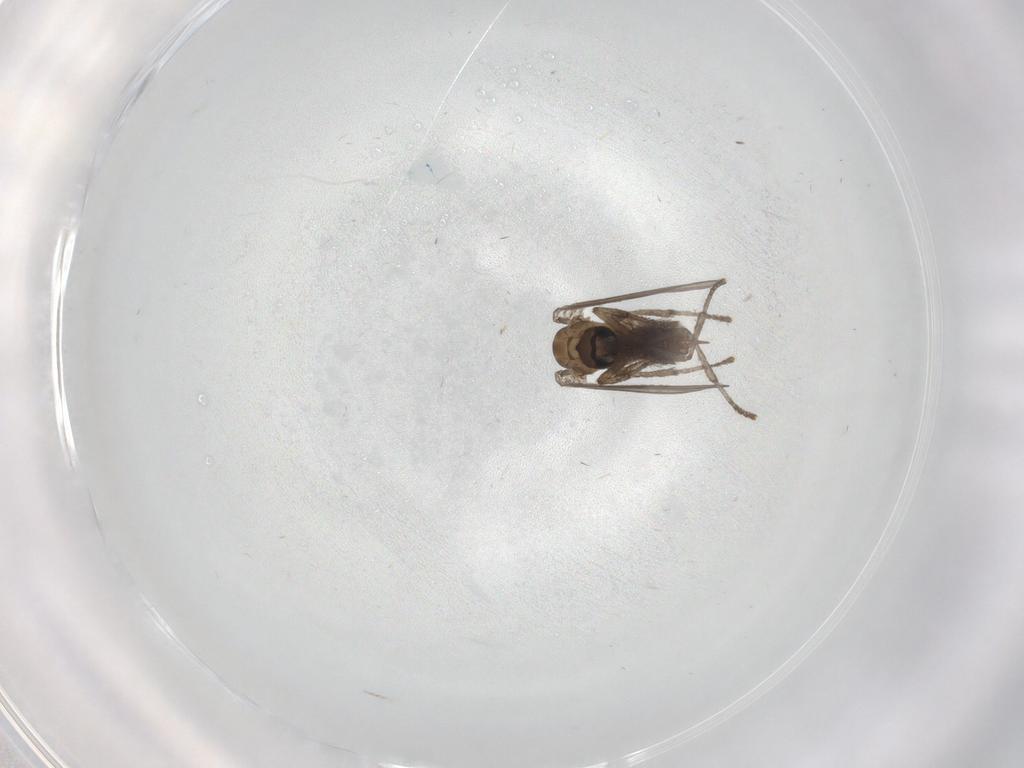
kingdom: Animalia
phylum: Arthropoda
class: Insecta
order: Diptera
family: Psychodidae
